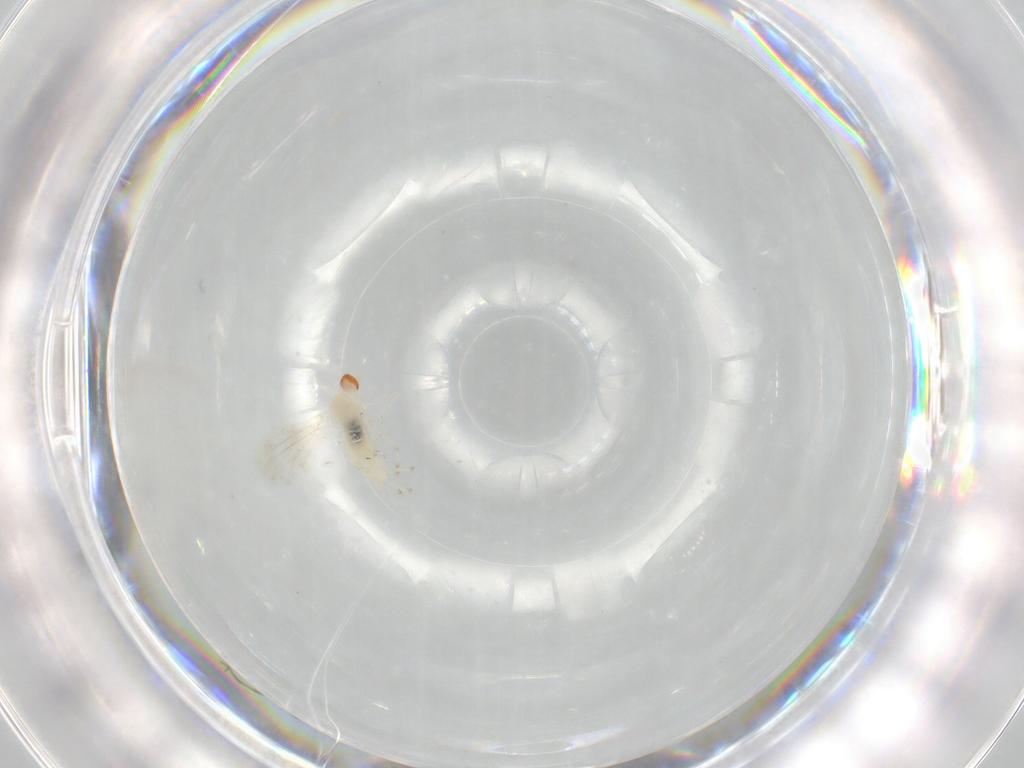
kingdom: Animalia
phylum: Arthropoda
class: Insecta
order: Diptera
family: Cecidomyiidae
